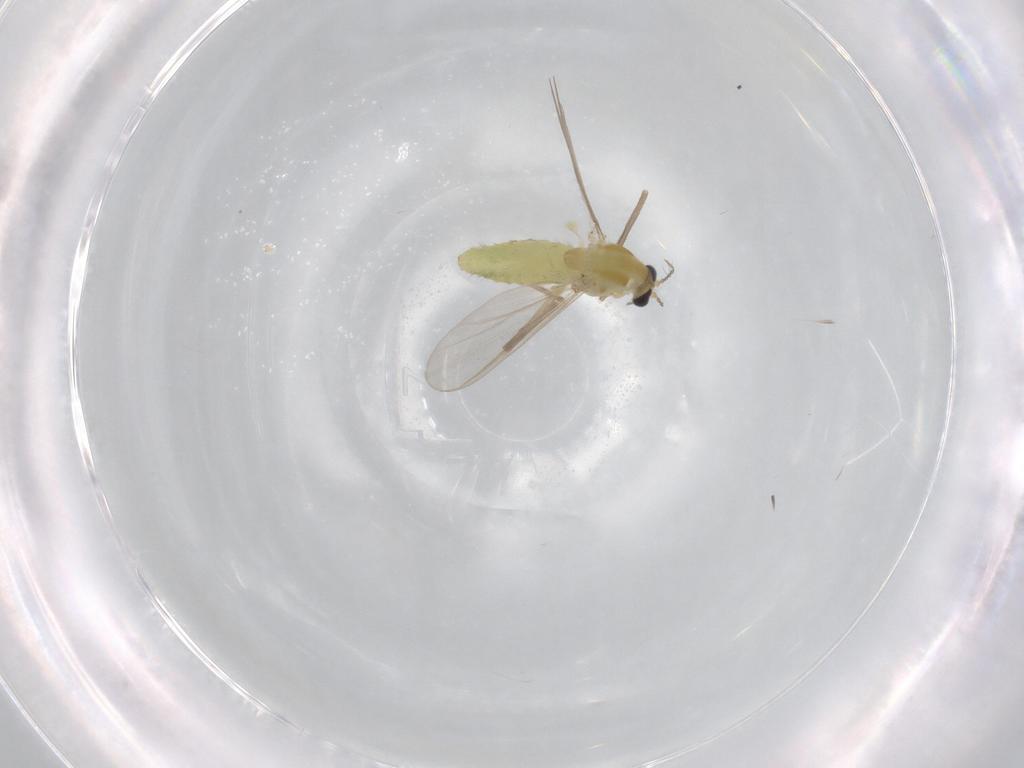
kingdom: Animalia
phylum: Arthropoda
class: Insecta
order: Diptera
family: Chironomidae
